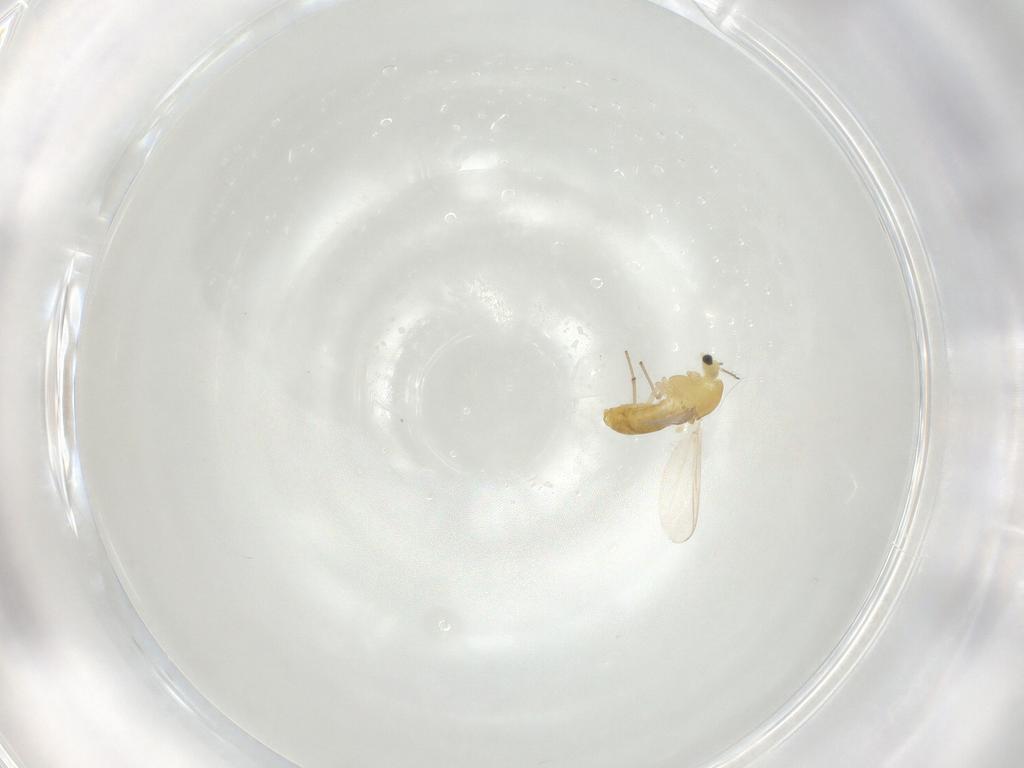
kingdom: Animalia
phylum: Arthropoda
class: Insecta
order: Diptera
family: Chironomidae
